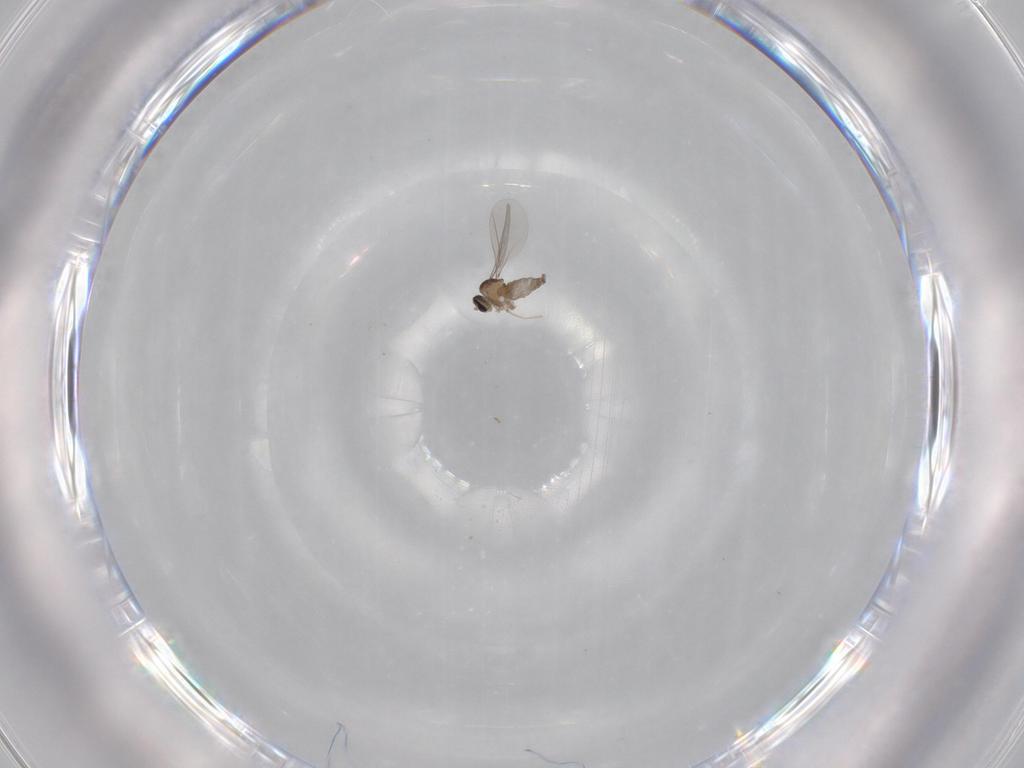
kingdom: Animalia
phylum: Arthropoda
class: Insecta
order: Diptera
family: Cecidomyiidae
